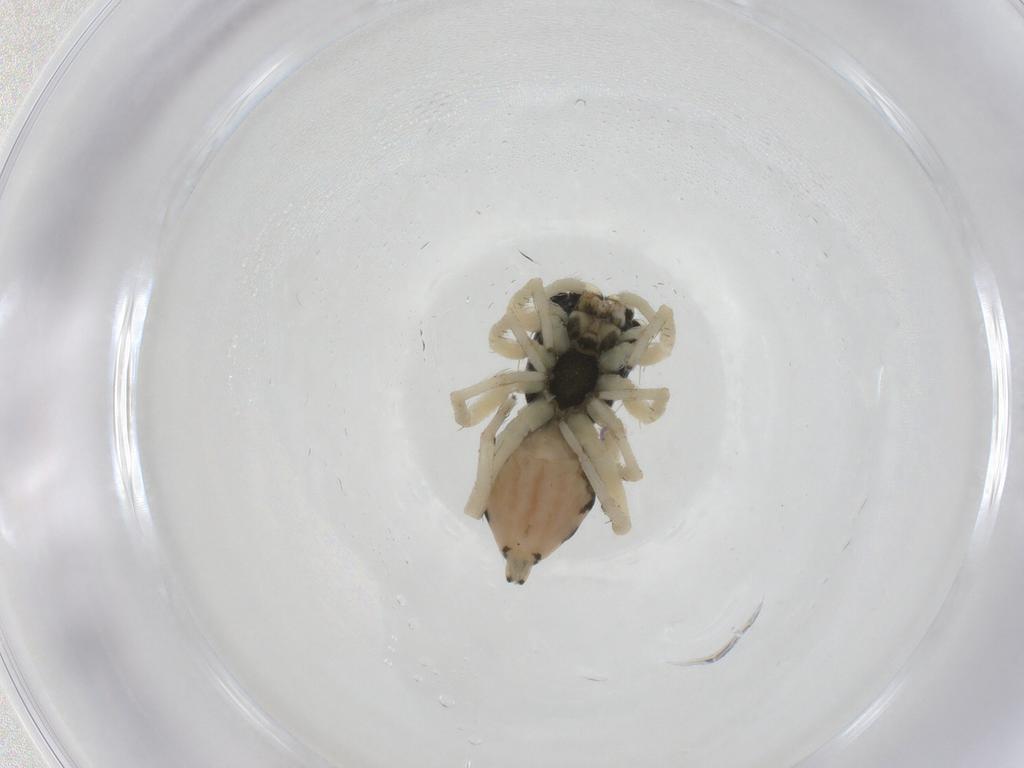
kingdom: Animalia
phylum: Arthropoda
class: Arachnida
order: Araneae
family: Salticidae
